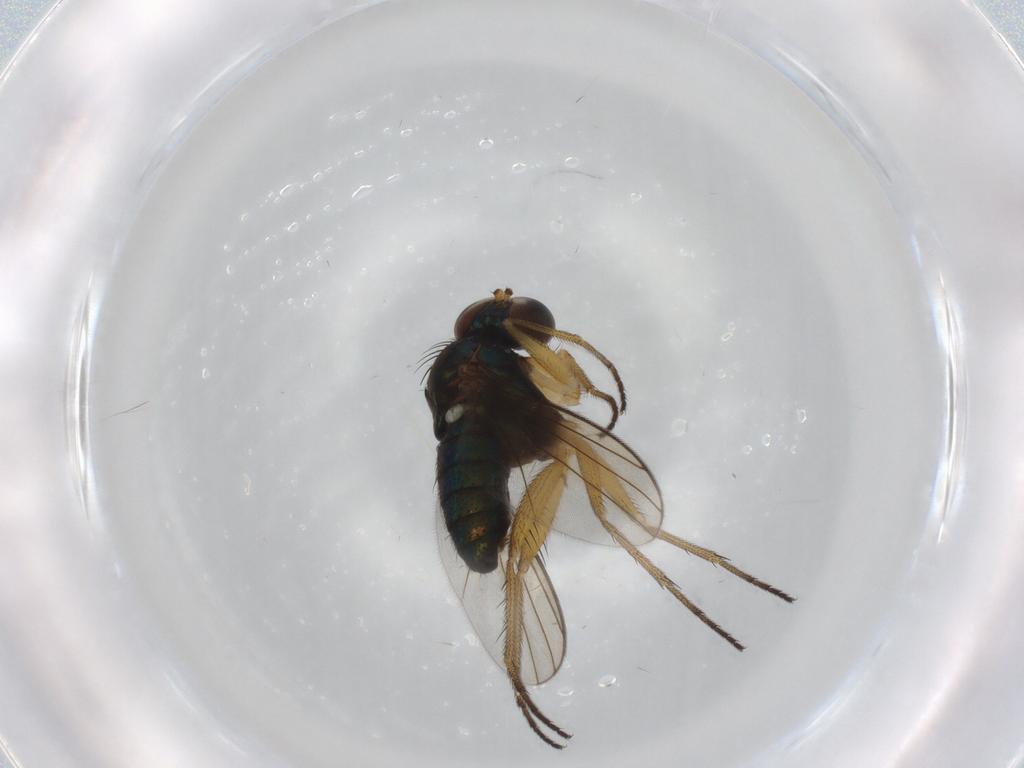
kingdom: Animalia
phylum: Arthropoda
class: Insecta
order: Diptera
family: Dolichopodidae
